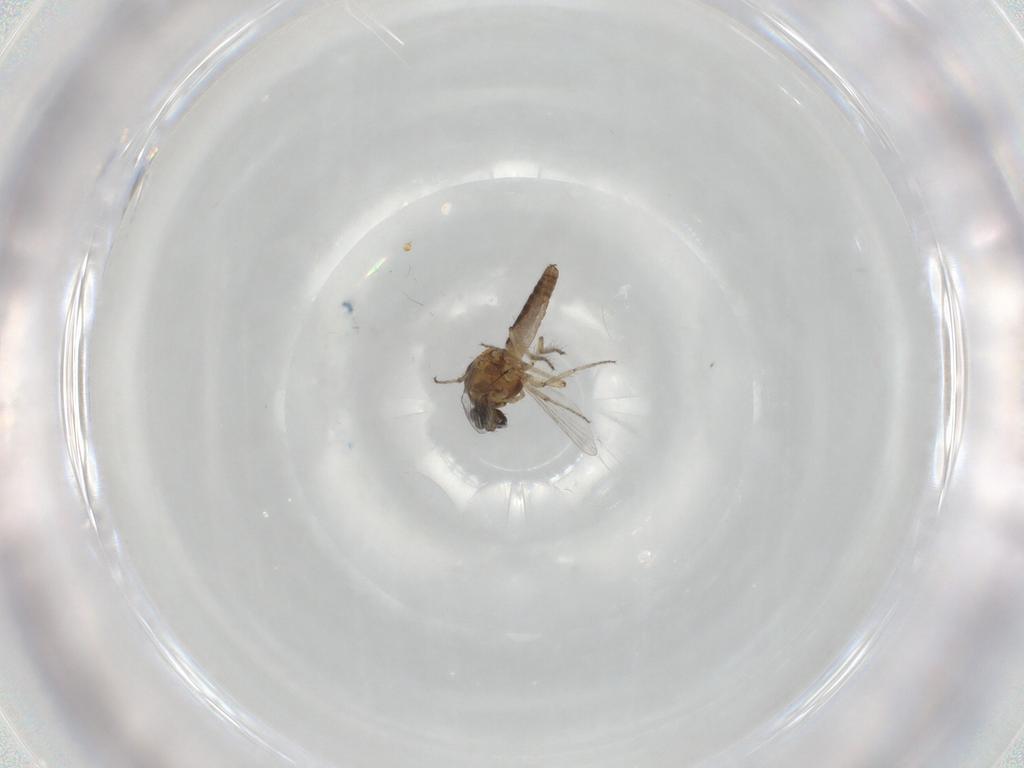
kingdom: Animalia
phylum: Arthropoda
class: Insecta
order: Diptera
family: Ceratopogonidae
